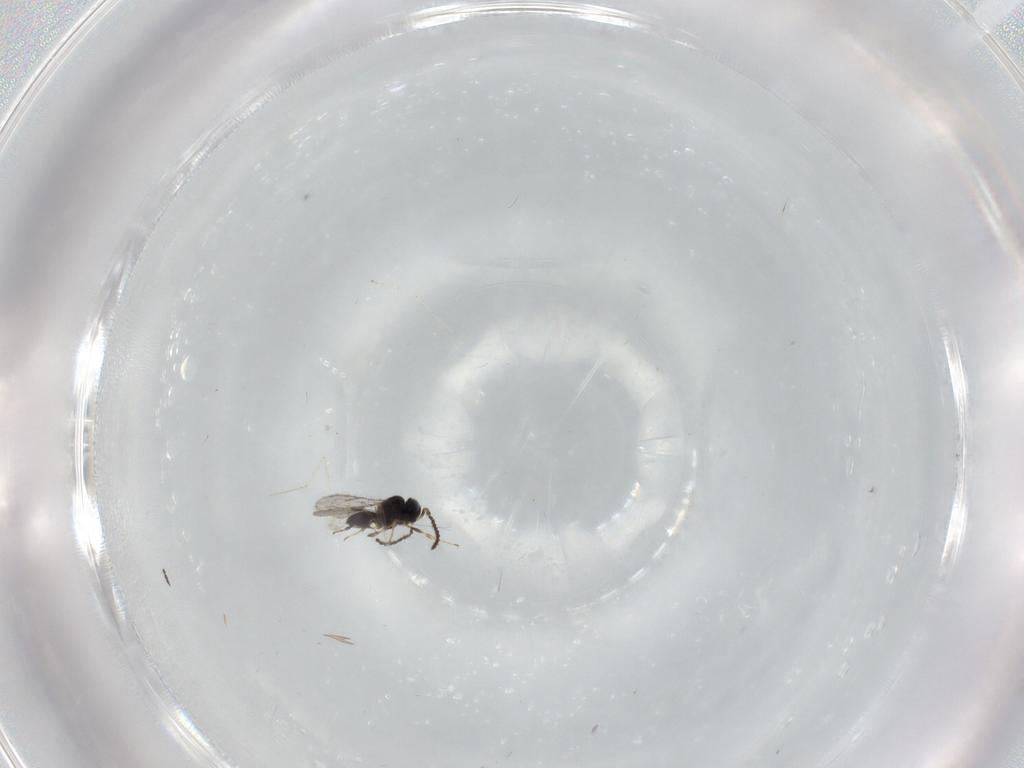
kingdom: Animalia
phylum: Arthropoda
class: Insecta
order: Hymenoptera
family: Scelionidae
